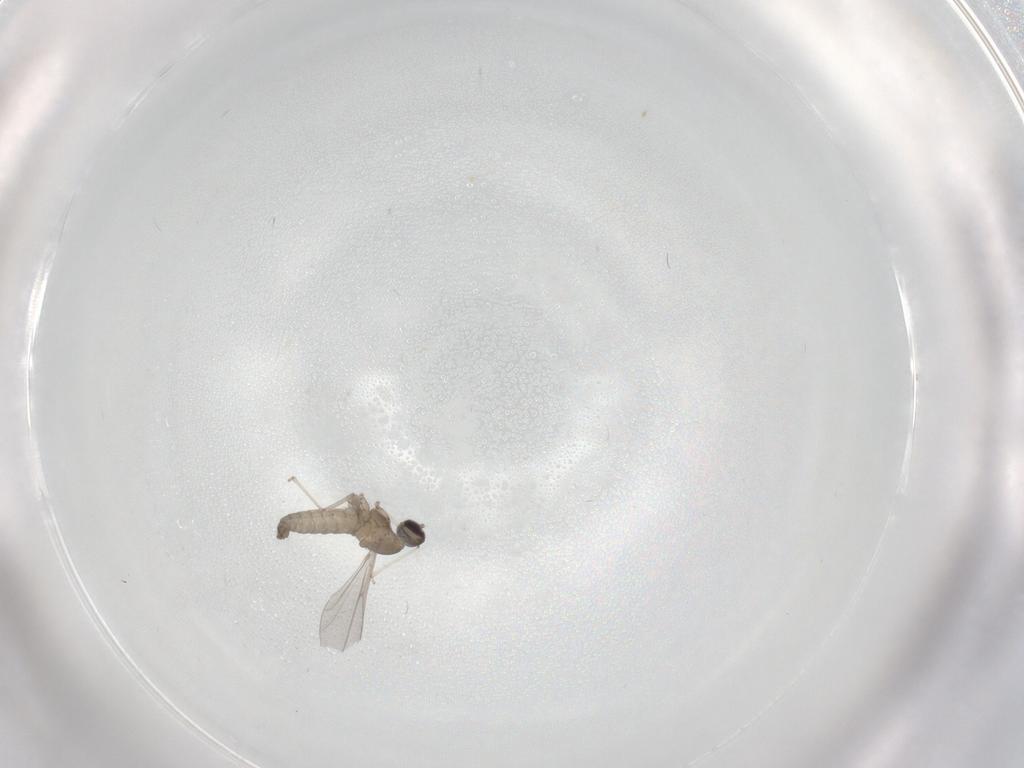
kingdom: Animalia
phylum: Arthropoda
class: Insecta
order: Diptera
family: Cecidomyiidae
